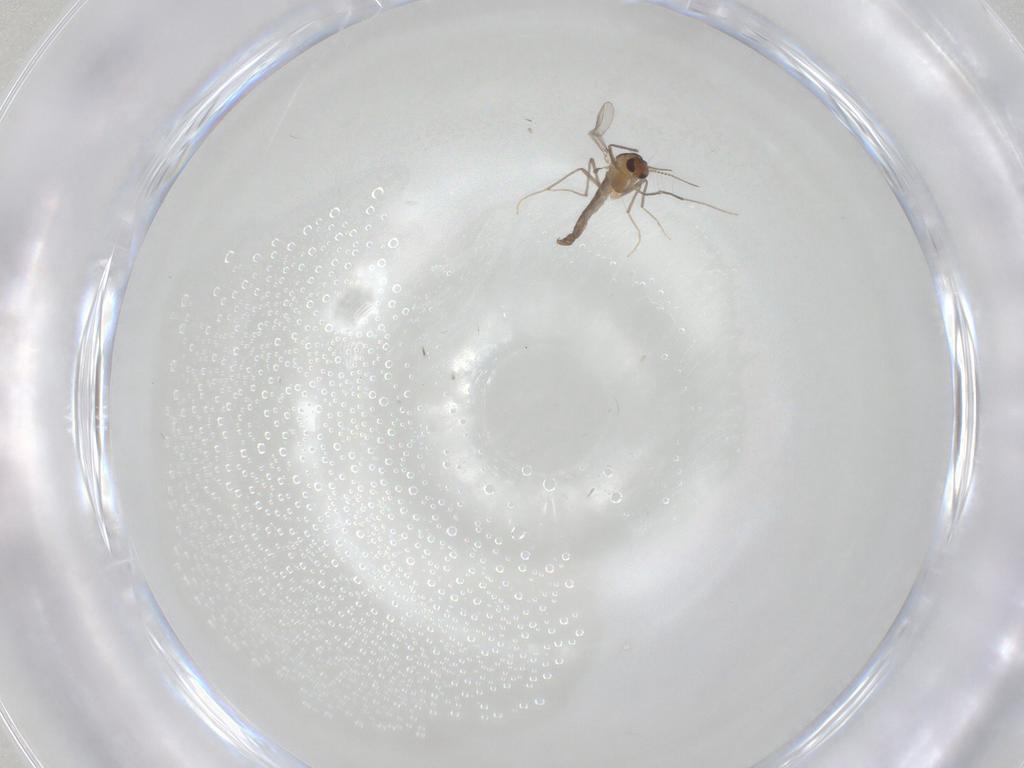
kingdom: Animalia
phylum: Arthropoda
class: Insecta
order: Diptera
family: Chironomidae
